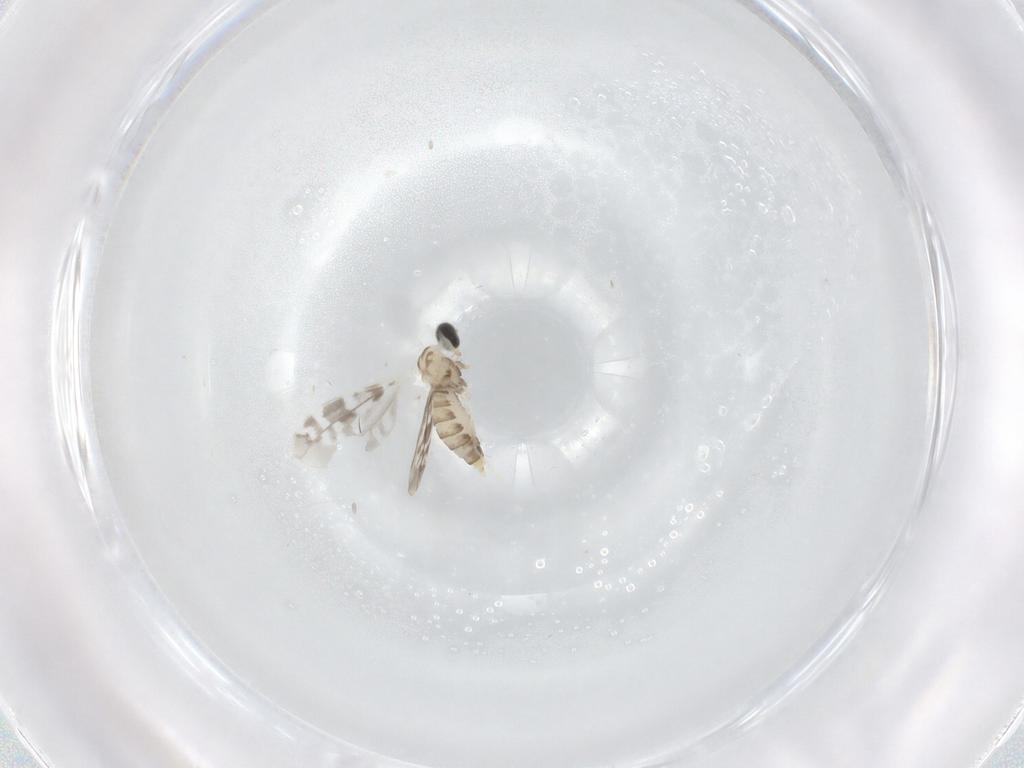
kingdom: Animalia
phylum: Arthropoda
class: Insecta
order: Diptera
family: Cecidomyiidae
